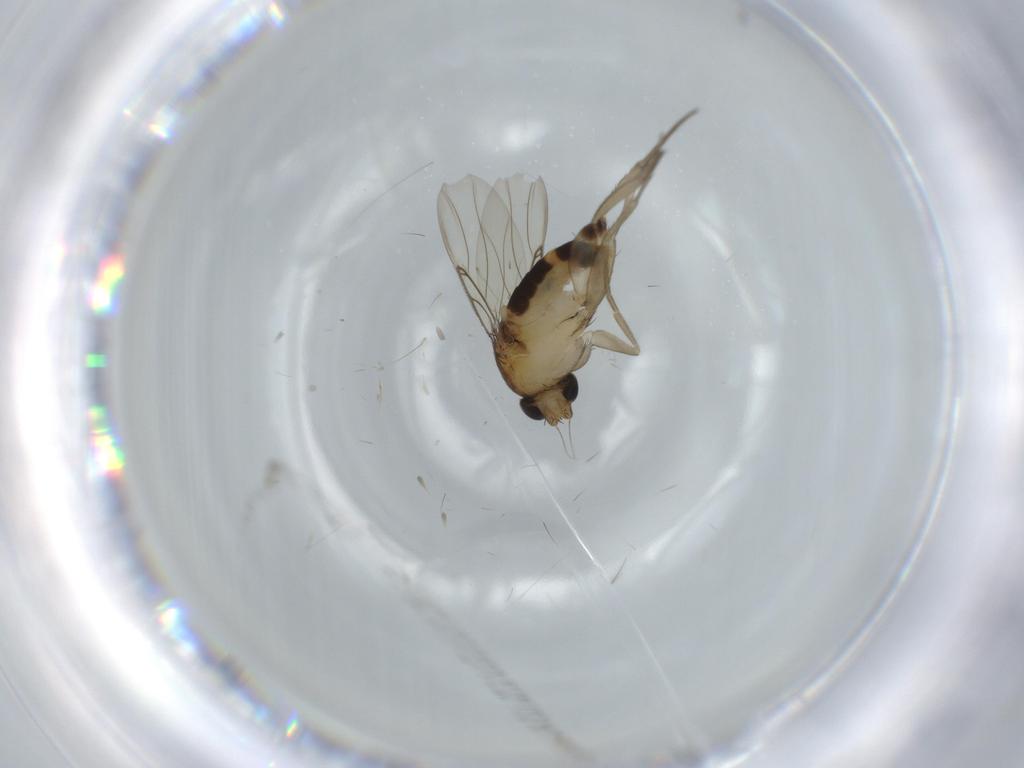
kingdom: Animalia
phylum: Arthropoda
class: Insecta
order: Diptera
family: Phoridae
